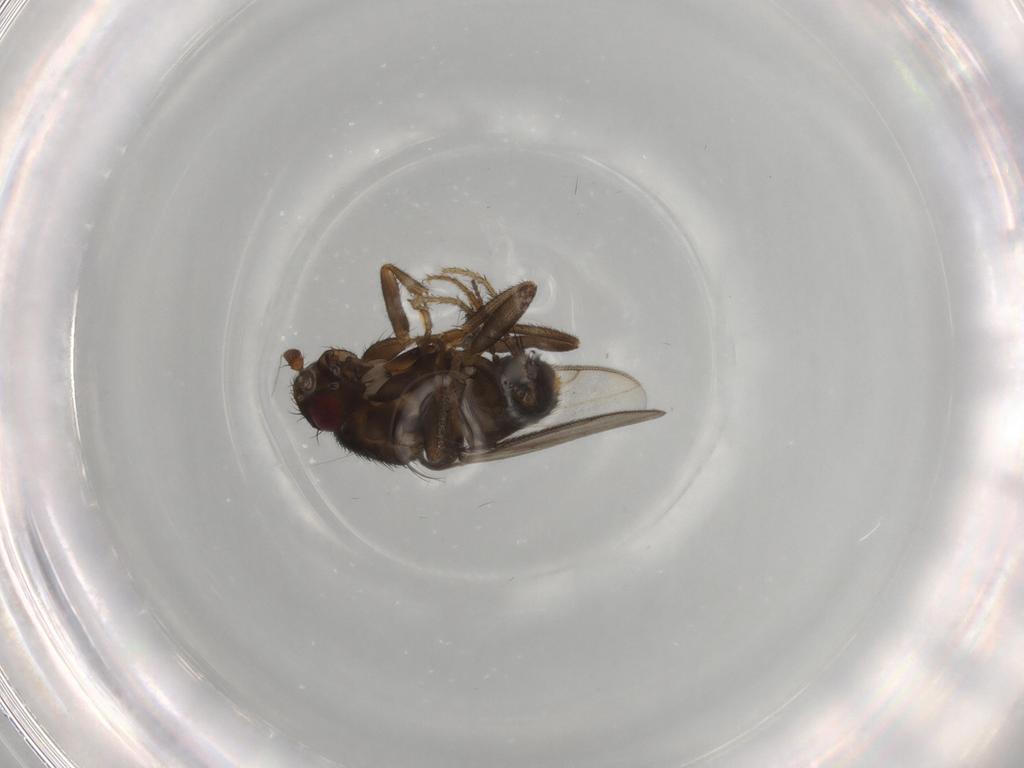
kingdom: Animalia
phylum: Arthropoda
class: Insecta
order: Diptera
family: Sphaeroceridae
